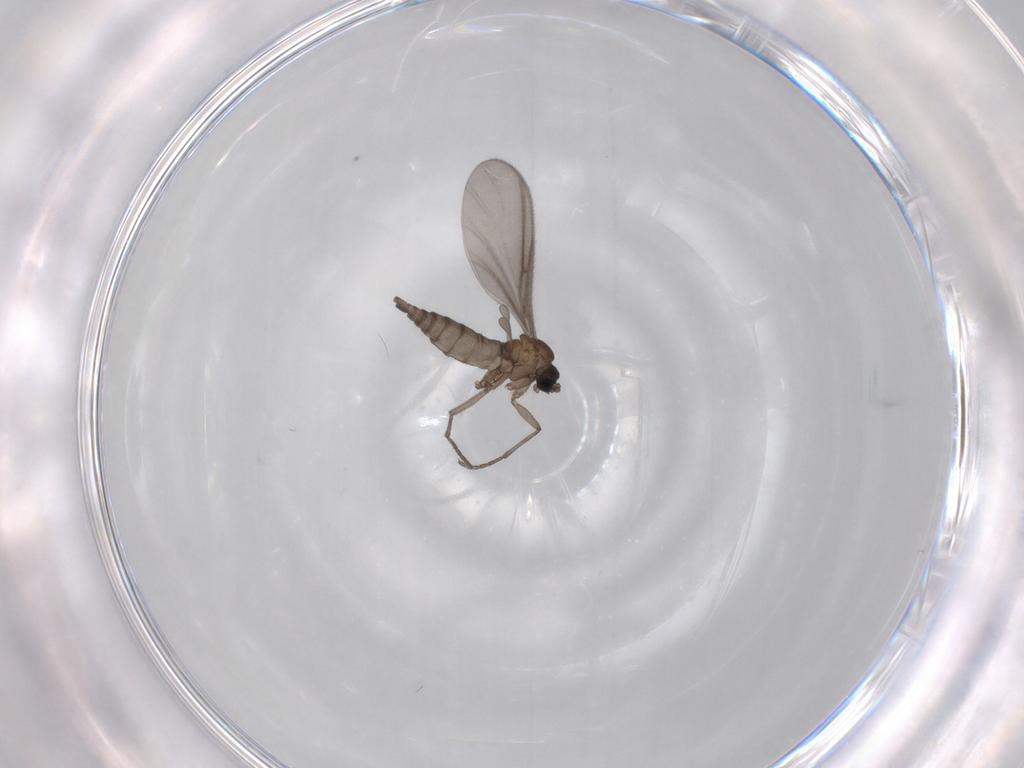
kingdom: Animalia
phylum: Arthropoda
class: Insecta
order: Diptera
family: Sciaridae
